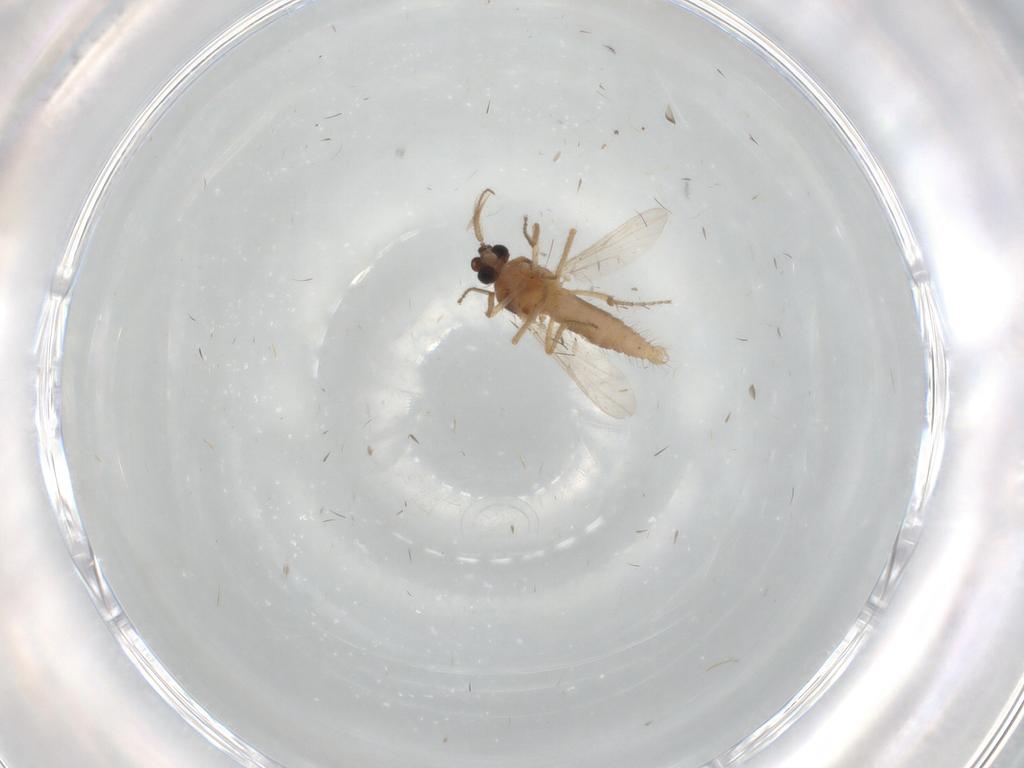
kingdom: Animalia
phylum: Arthropoda
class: Insecta
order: Diptera
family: Ceratopogonidae
